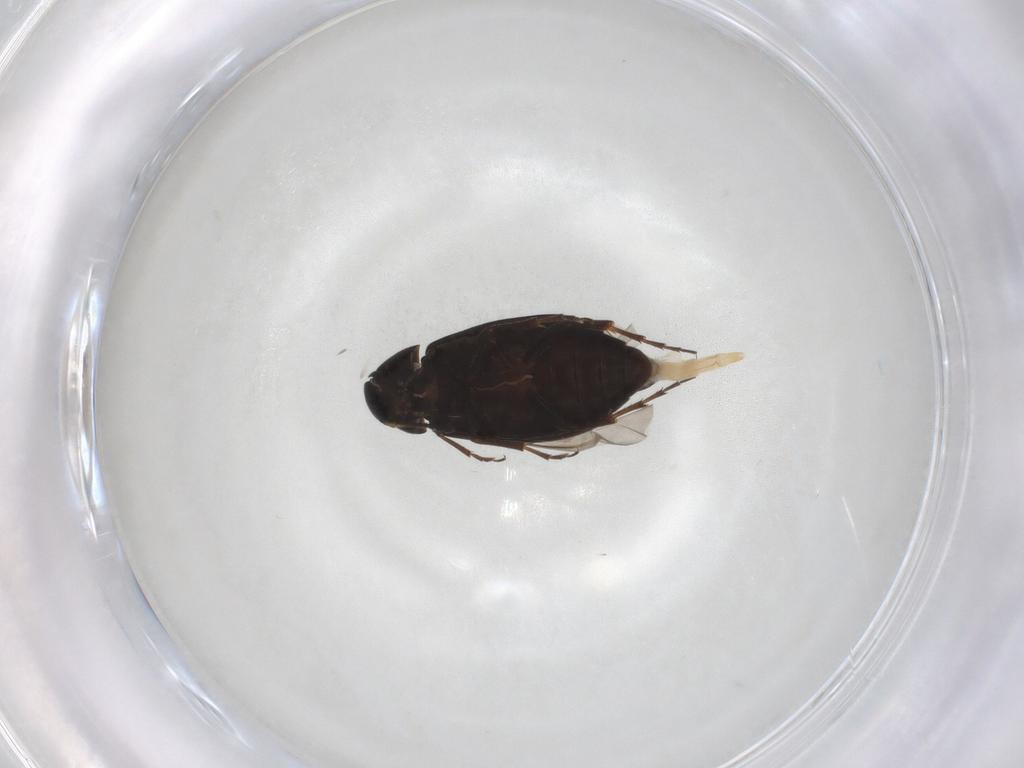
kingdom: Animalia
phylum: Arthropoda
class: Insecta
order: Coleoptera
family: Scraptiidae
